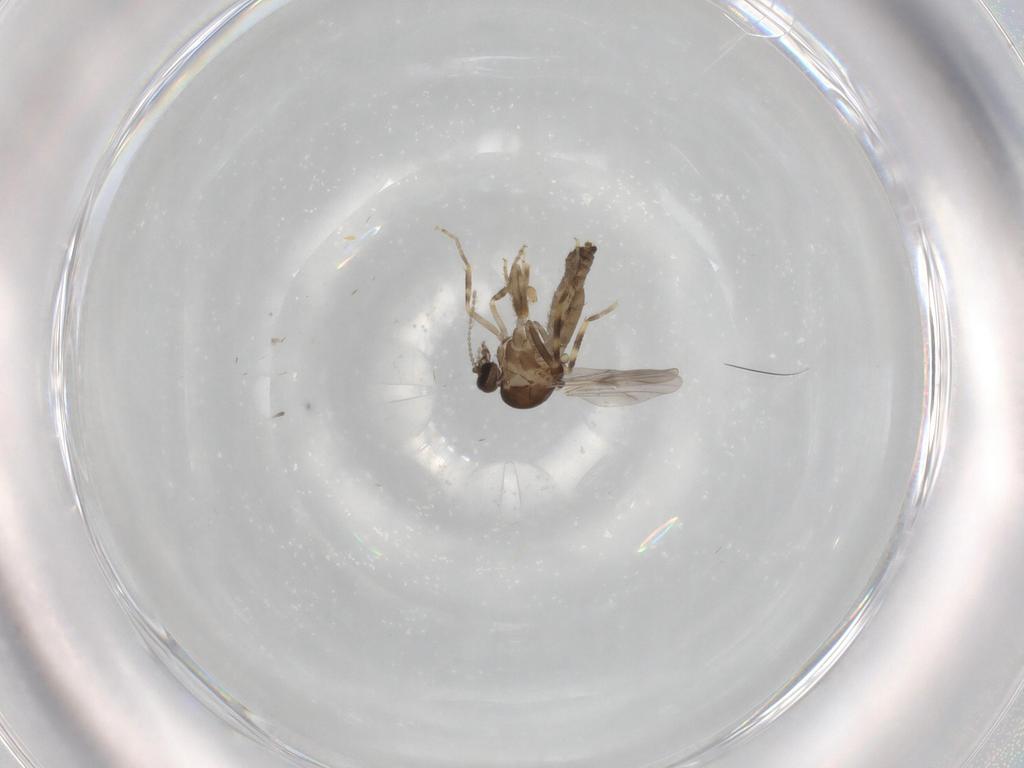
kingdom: Animalia
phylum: Arthropoda
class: Insecta
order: Diptera
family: Ceratopogonidae
